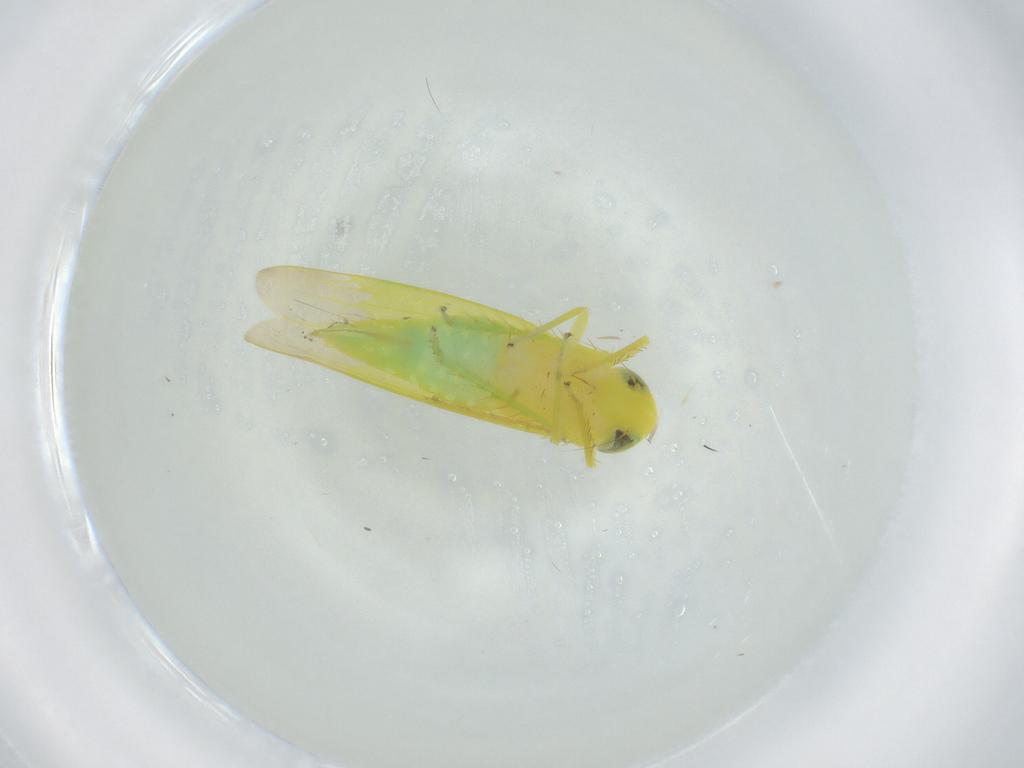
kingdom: Animalia
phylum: Arthropoda
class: Insecta
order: Hemiptera
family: Cicadellidae
